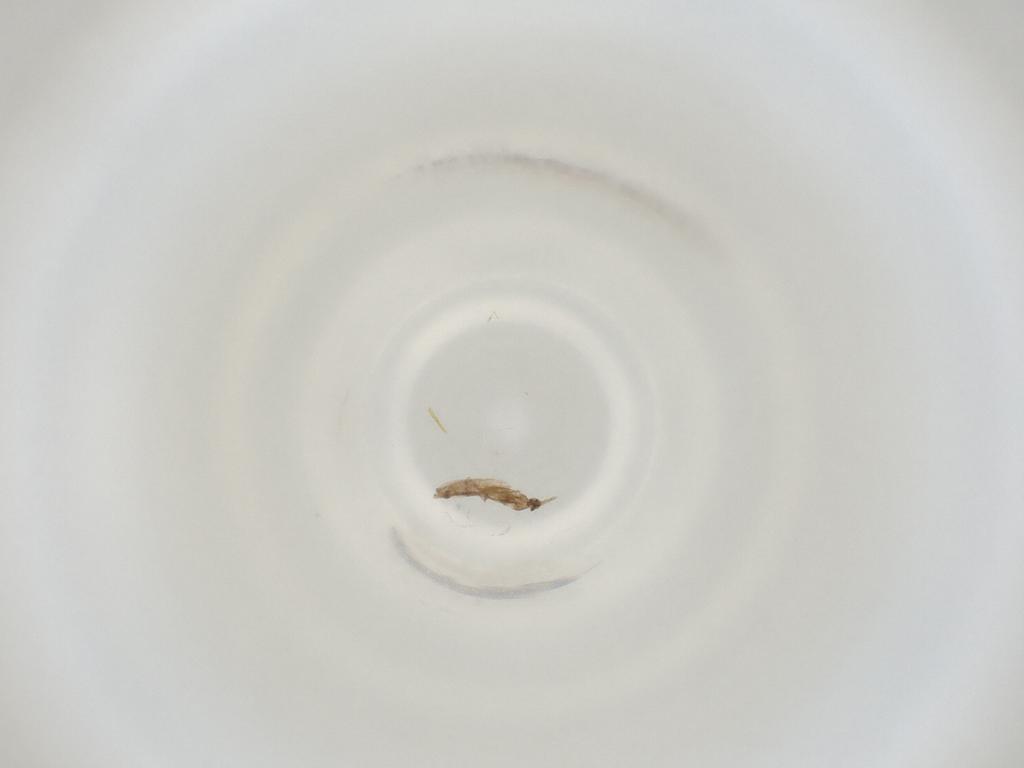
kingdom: Animalia
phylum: Arthropoda
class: Insecta
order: Diptera
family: Cecidomyiidae
